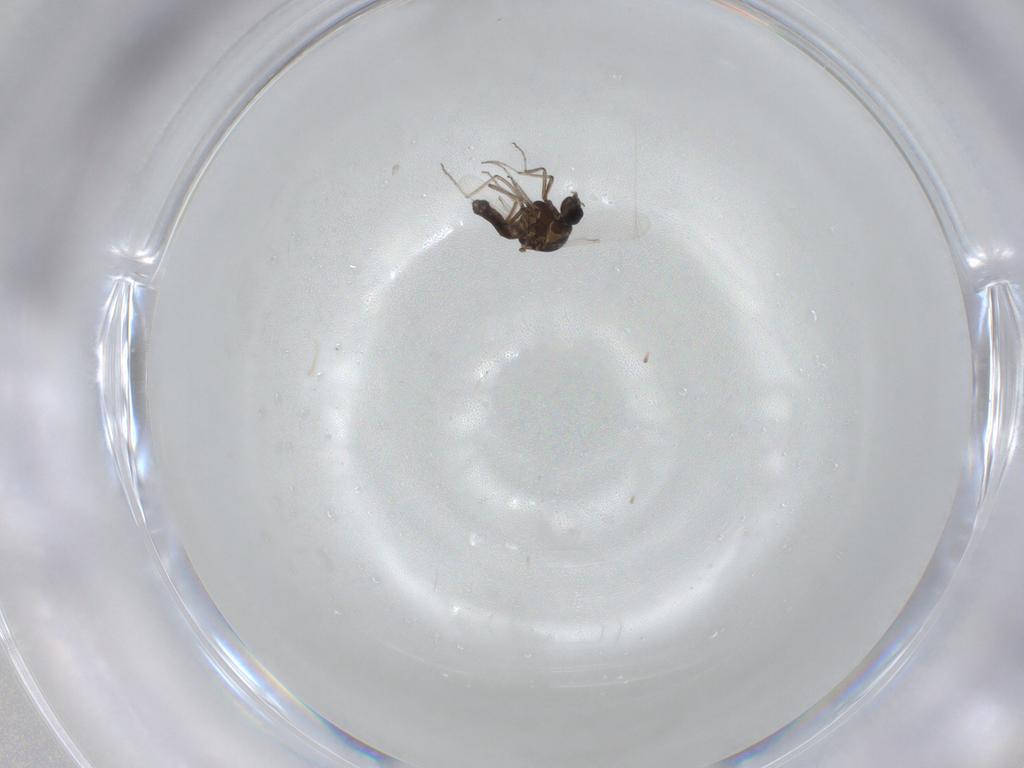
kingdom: Animalia
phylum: Arthropoda
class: Insecta
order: Diptera
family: Ceratopogonidae
